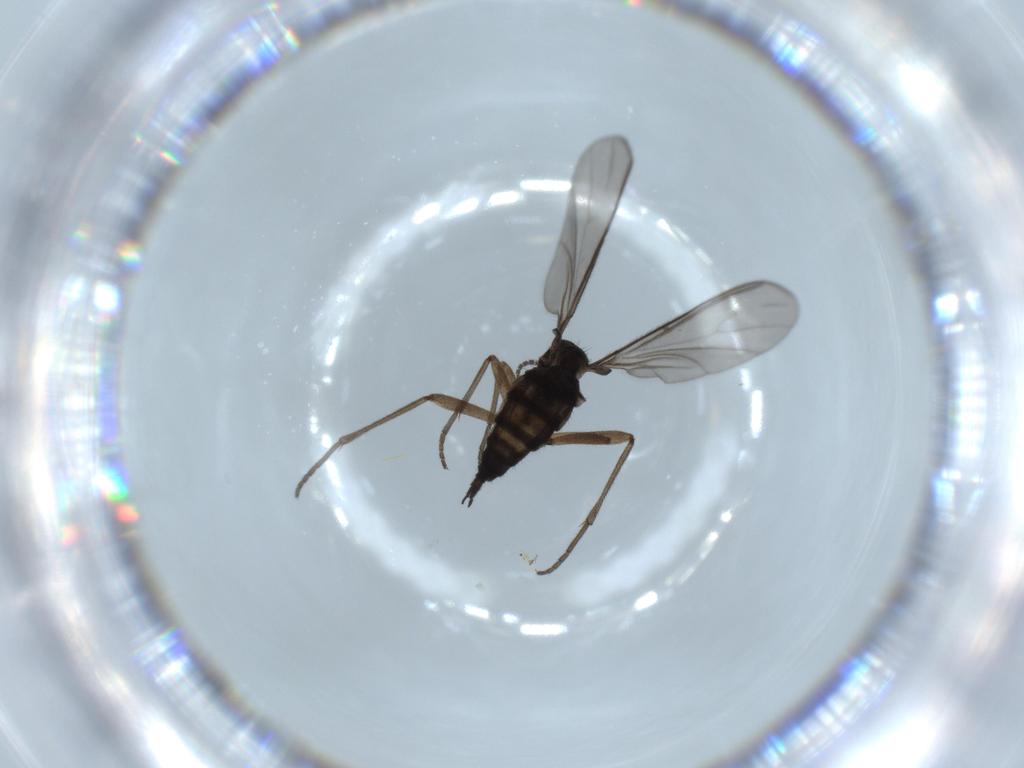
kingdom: Animalia
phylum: Arthropoda
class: Insecta
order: Diptera
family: Sciaridae
